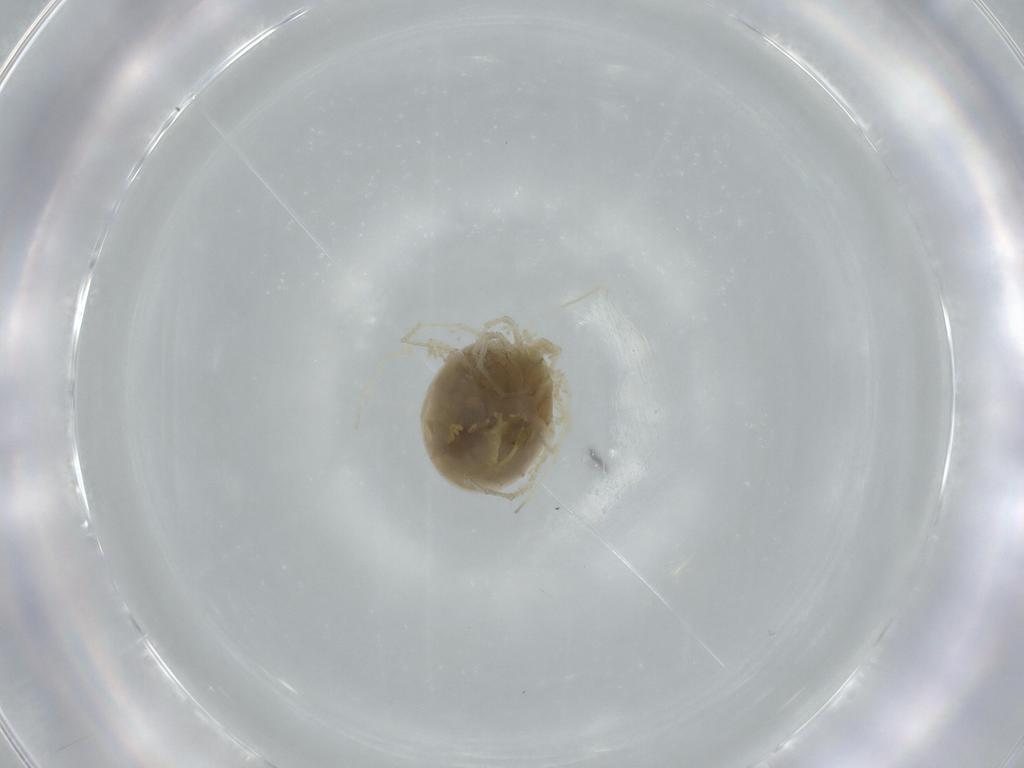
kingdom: Animalia
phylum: Arthropoda
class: Arachnida
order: Trombidiformes
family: Hygrobatidae
